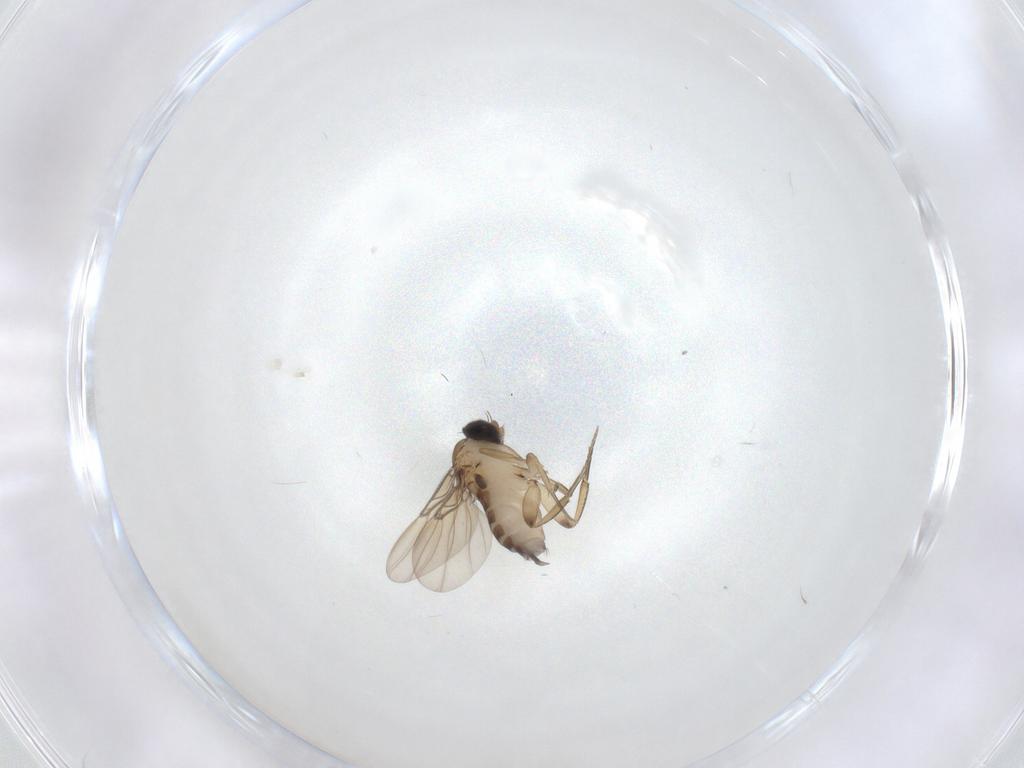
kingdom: Animalia
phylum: Arthropoda
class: Insecta
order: Diptera
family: Phoridae
